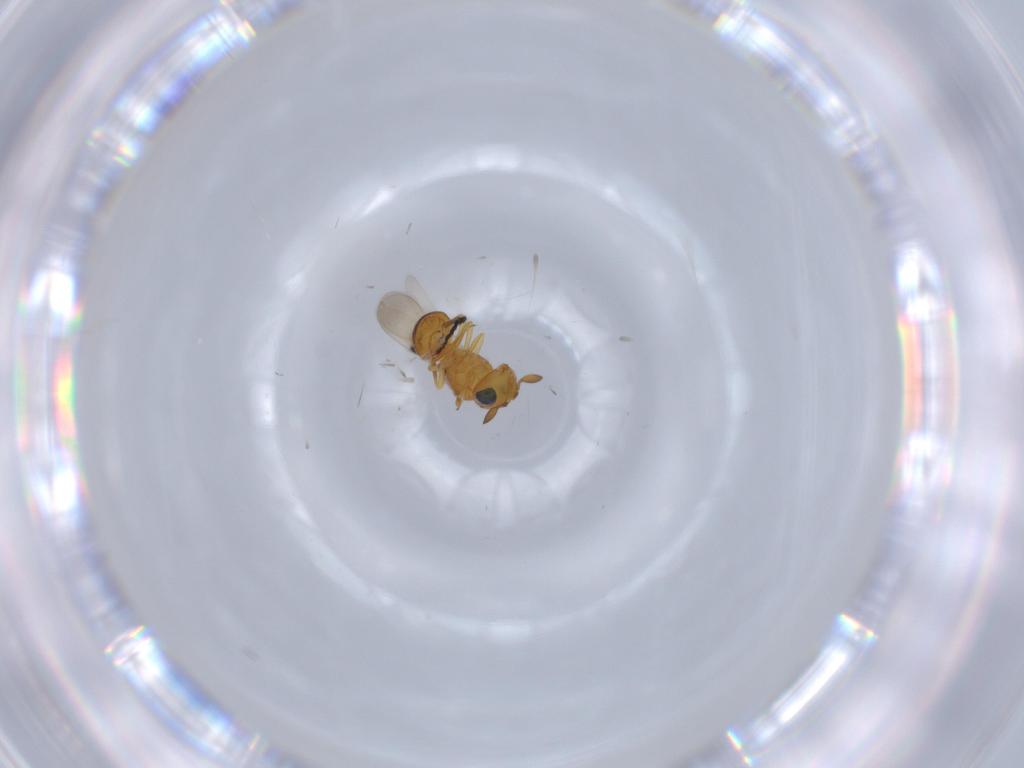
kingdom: Animalia
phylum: Arthropoda
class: Insecta
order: Hymenoptera
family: Scelionidae
